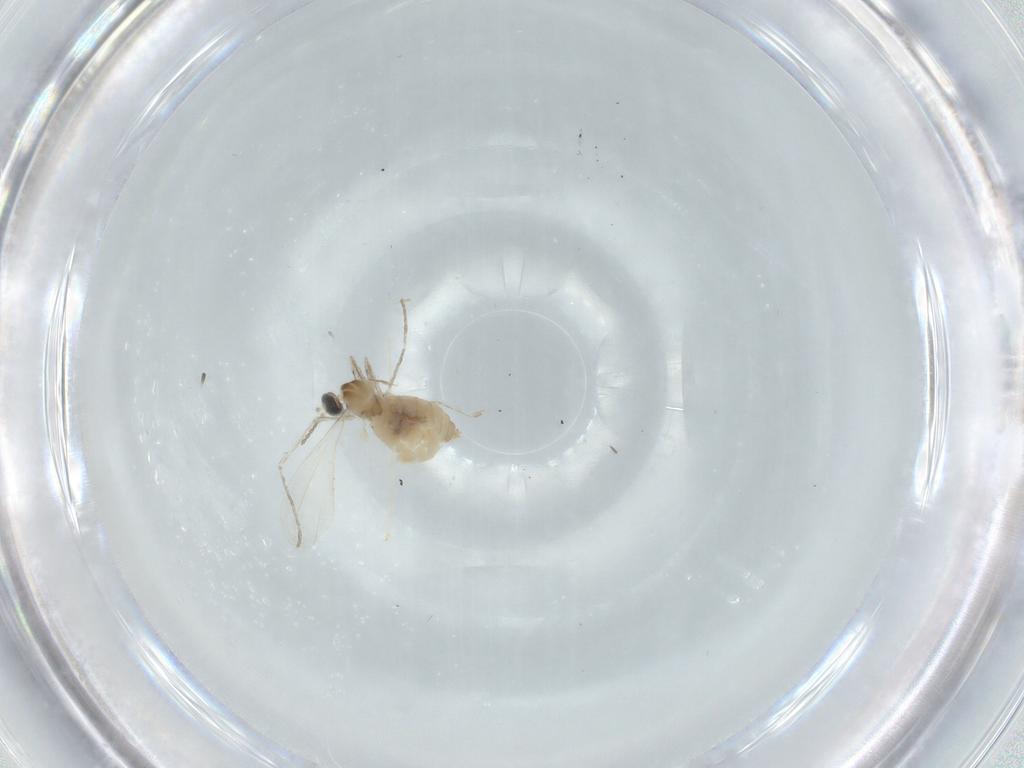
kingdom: Animalia
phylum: Arthropoda
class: Insecta
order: Diptera
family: Cecidomyiidae
